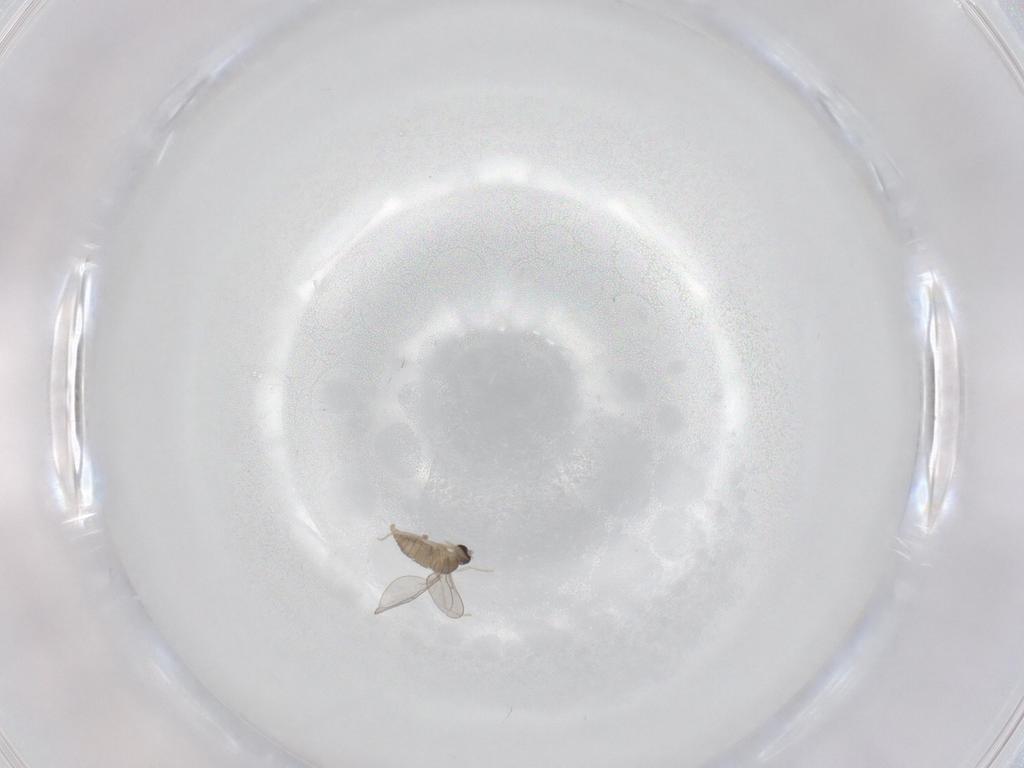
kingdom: Animalia
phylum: Arthropoda
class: Insecta
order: Diptera
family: Cecidomyiidae
